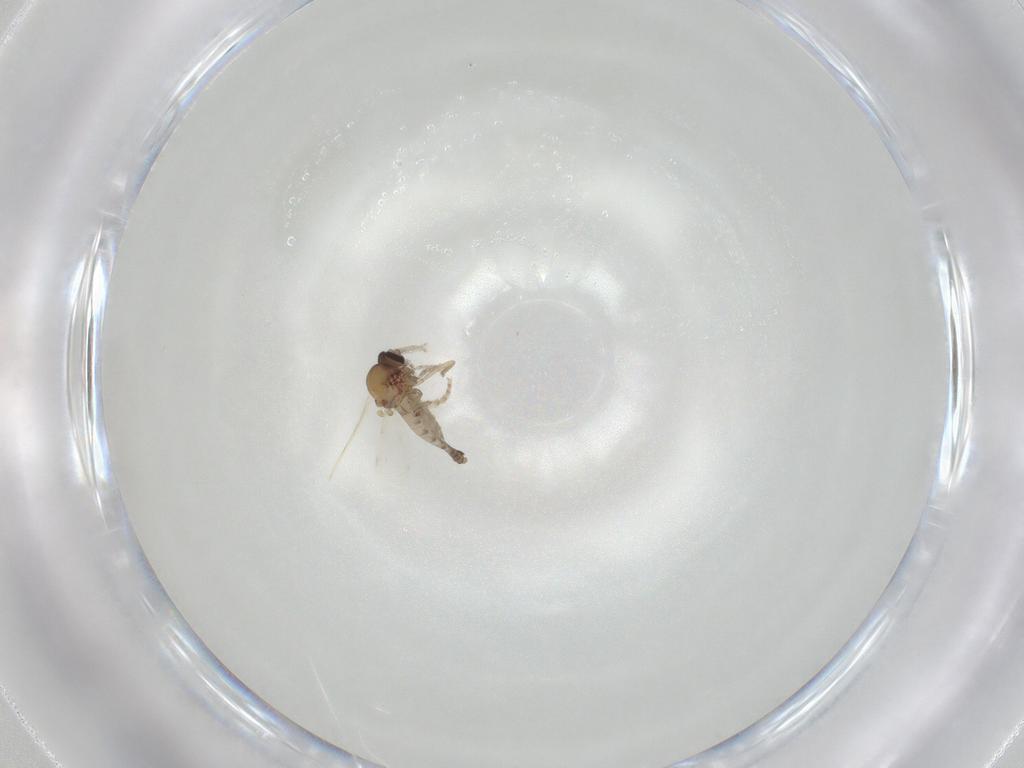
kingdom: Animalia
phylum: Arthropoda
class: Insecta
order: Diptera
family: Ceratopogonidae
